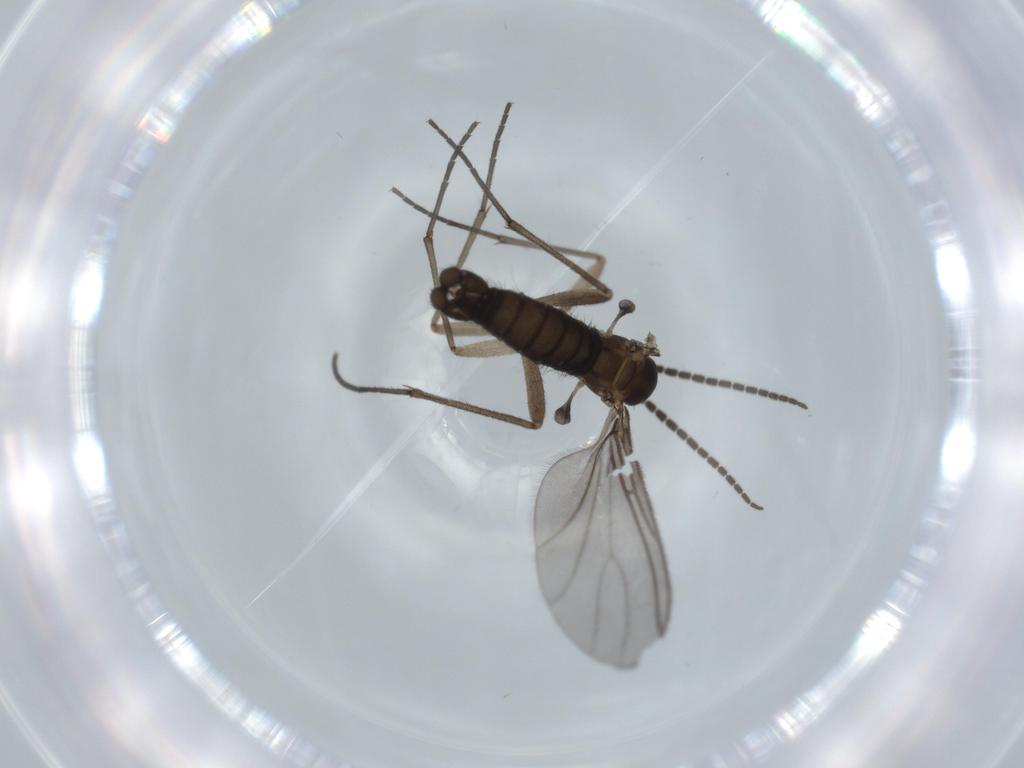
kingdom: Animalia
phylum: Arthropoda
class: Insecta
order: Diptera
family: Sciaridae
